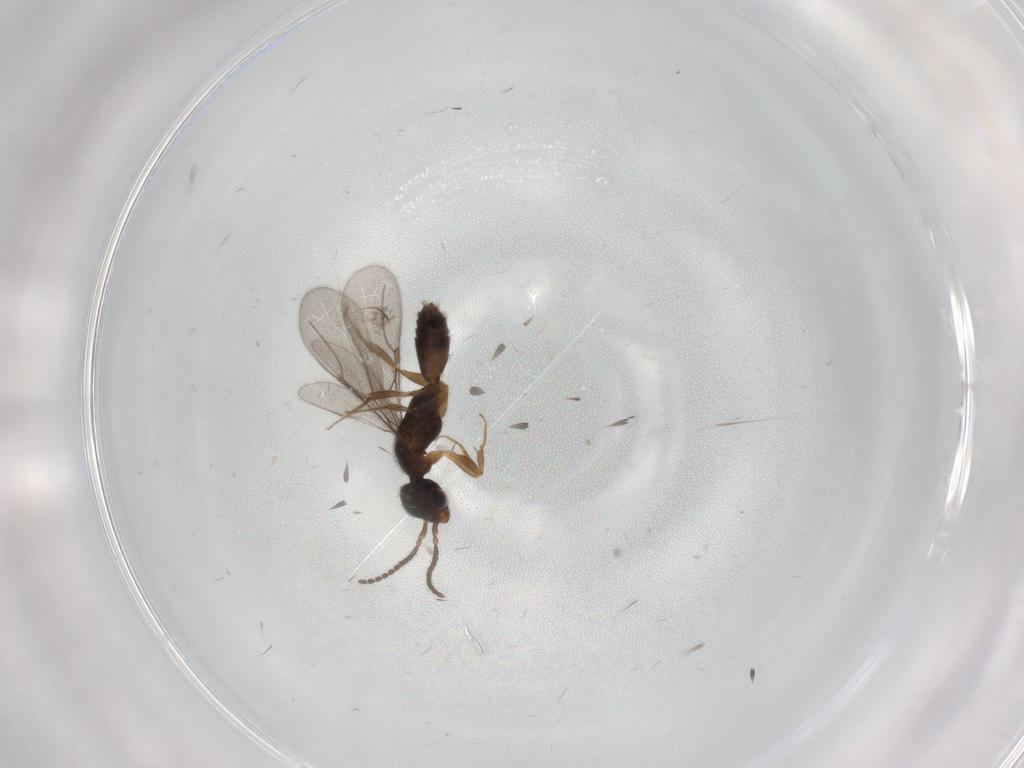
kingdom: Animalia
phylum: Arthropoda
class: Insecta
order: Hymenoptera
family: Bethylidae
